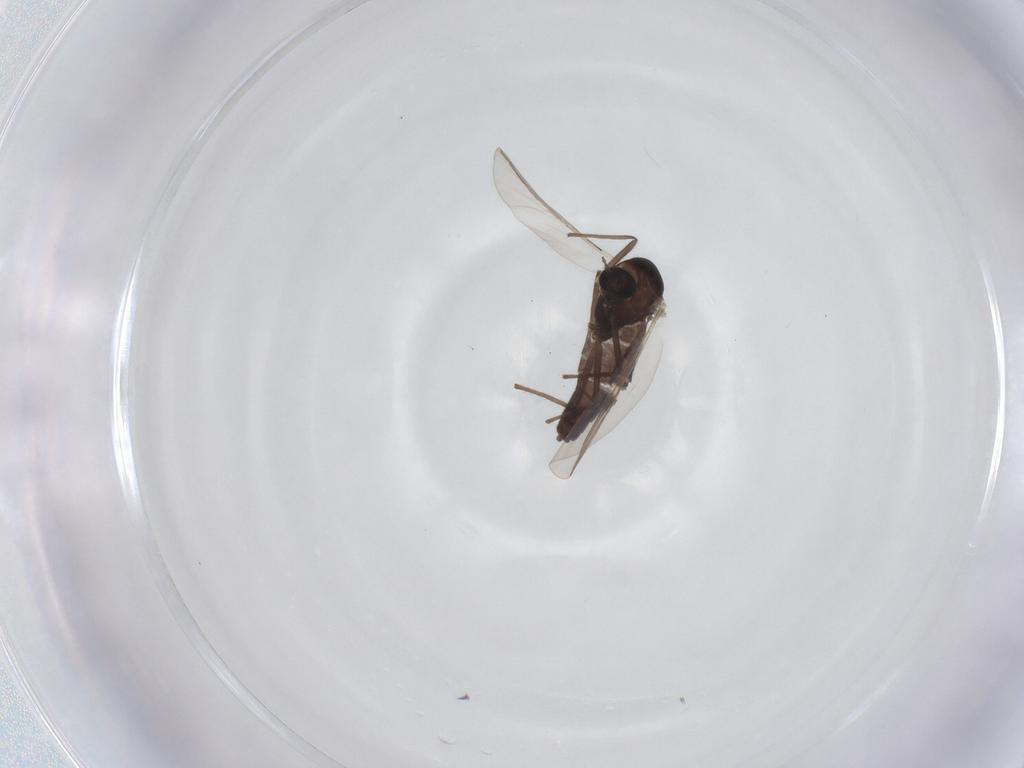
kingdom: Animalia
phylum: Arthropoda
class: Insecta
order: Diptera
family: Chironomidae
